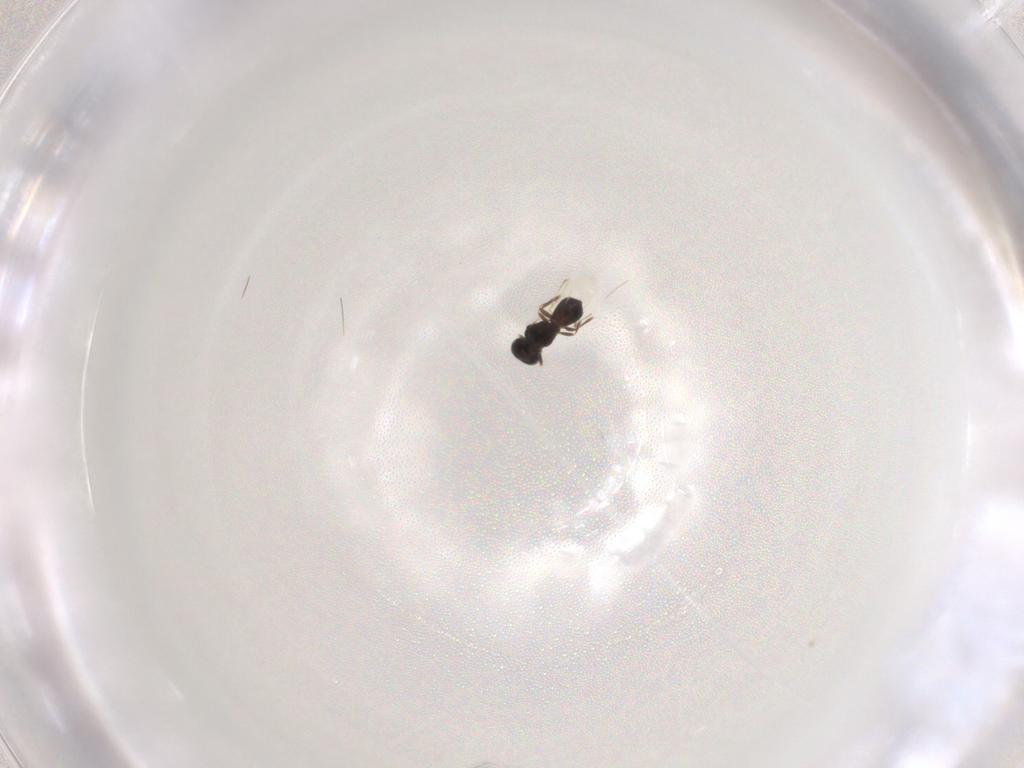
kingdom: Animalia
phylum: Arthropoda
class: Insecta
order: Hymenoptera
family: Scelionidae
